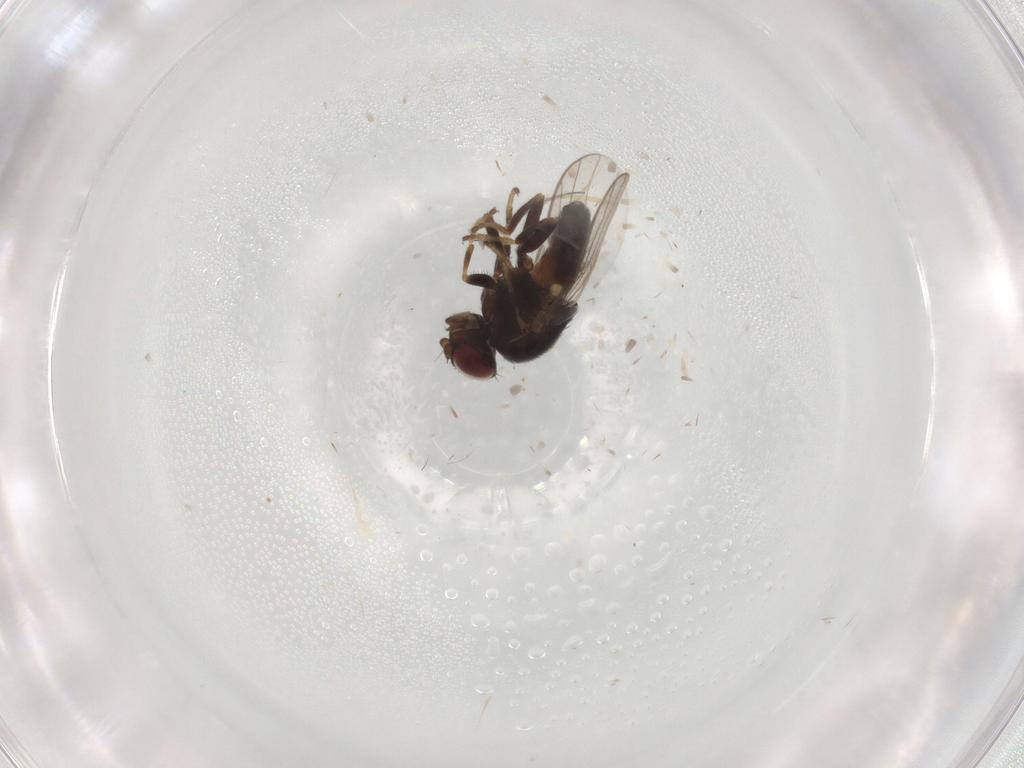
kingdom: Animalia
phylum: Arthropoda
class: Insecta
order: Diptera
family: Chloropidae
